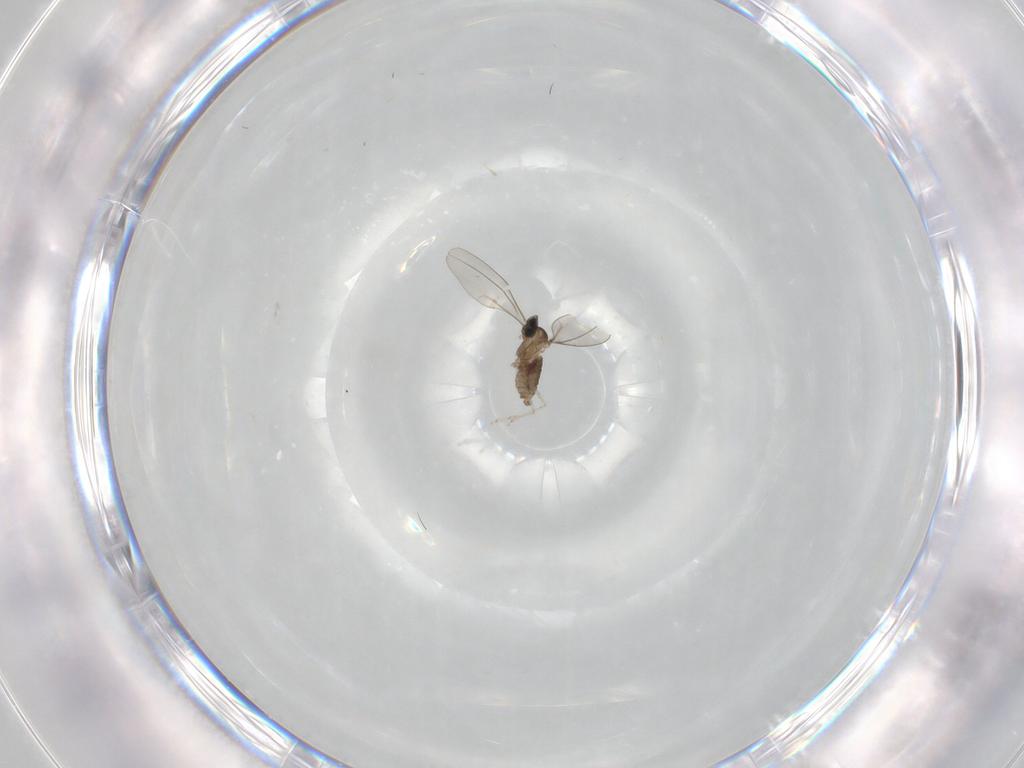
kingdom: Animalia
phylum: Arthropoda
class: Insecta
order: Diptera
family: Cecidomyiidae
